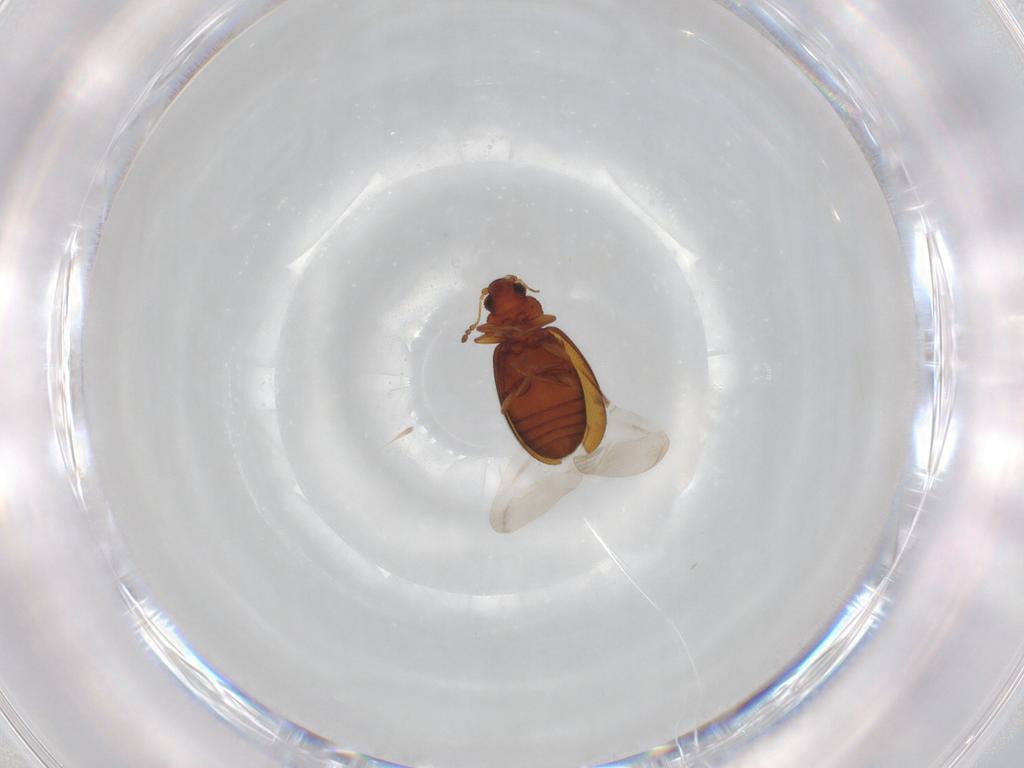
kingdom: Animalia
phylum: Arthropoda
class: Insecta
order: Coleoptera
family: Latridiidae
